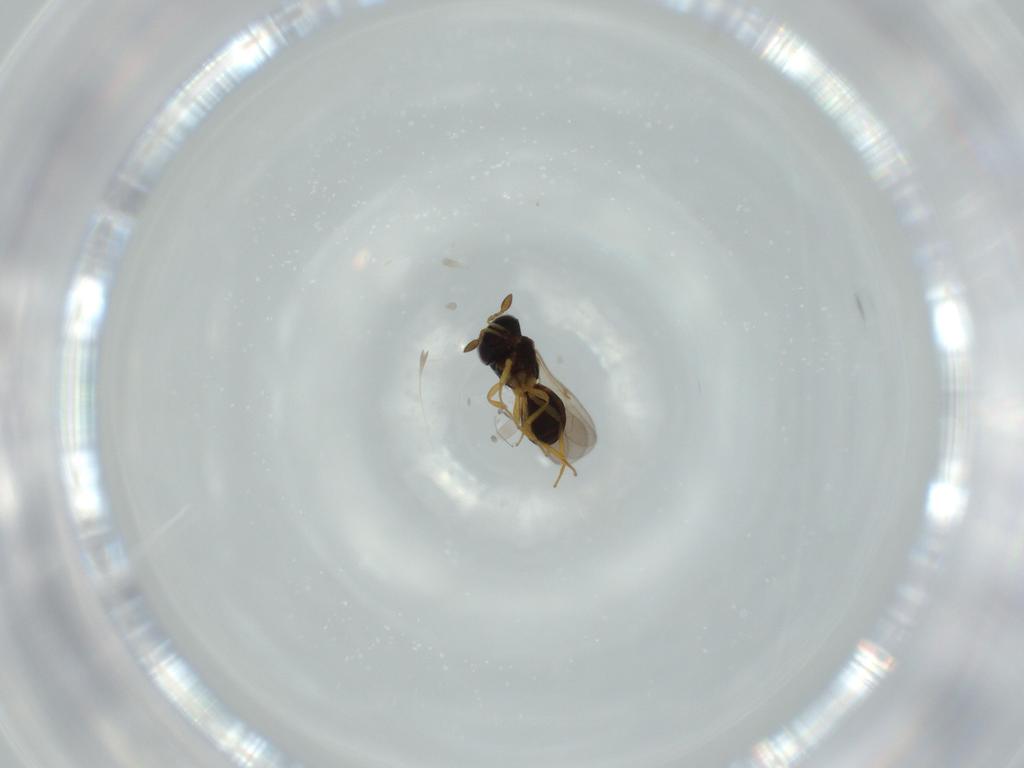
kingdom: Animalia
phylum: Arthropoda
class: Insecta
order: Hymenoptera
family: Scelionidae
